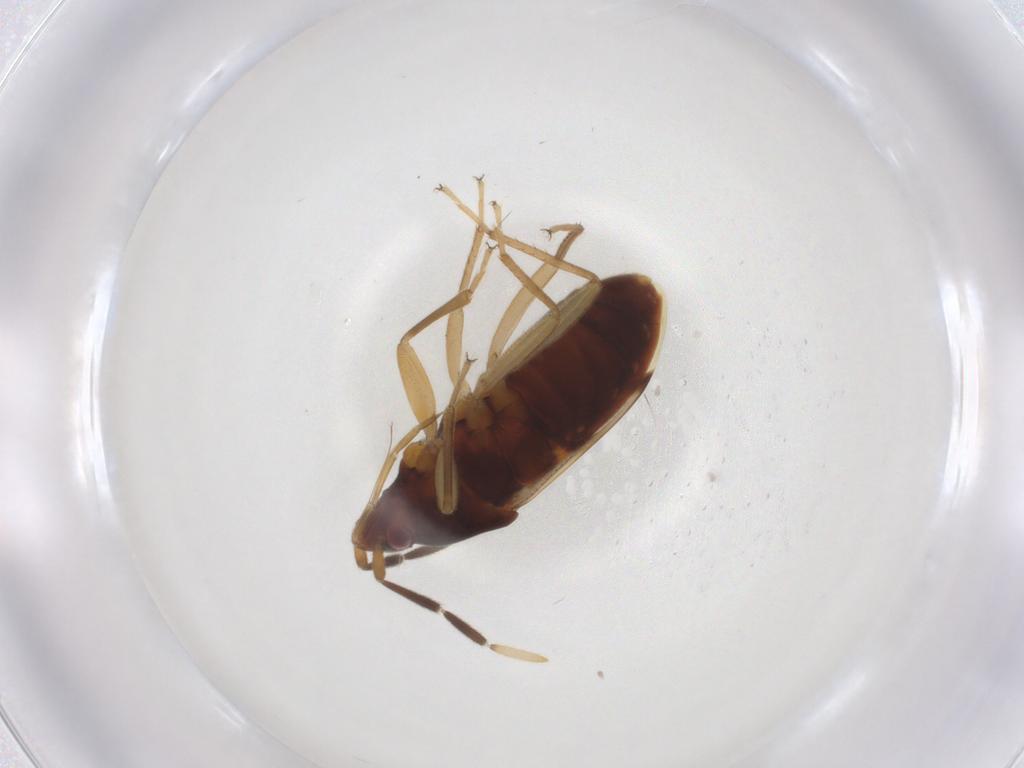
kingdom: Animalia
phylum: Arthropoda
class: Insecta
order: Hemiptera
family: Rhyparochromidae
